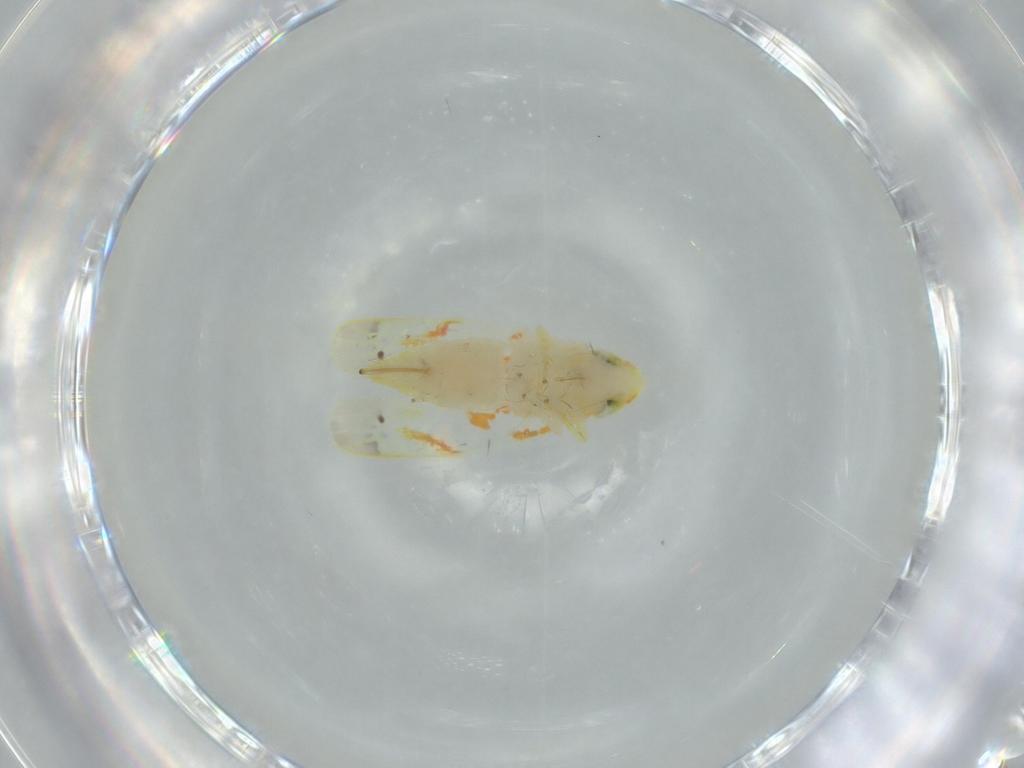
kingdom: Animalia
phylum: Arthropoda
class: Insecta
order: Hemiptera
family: Cicadellidae
